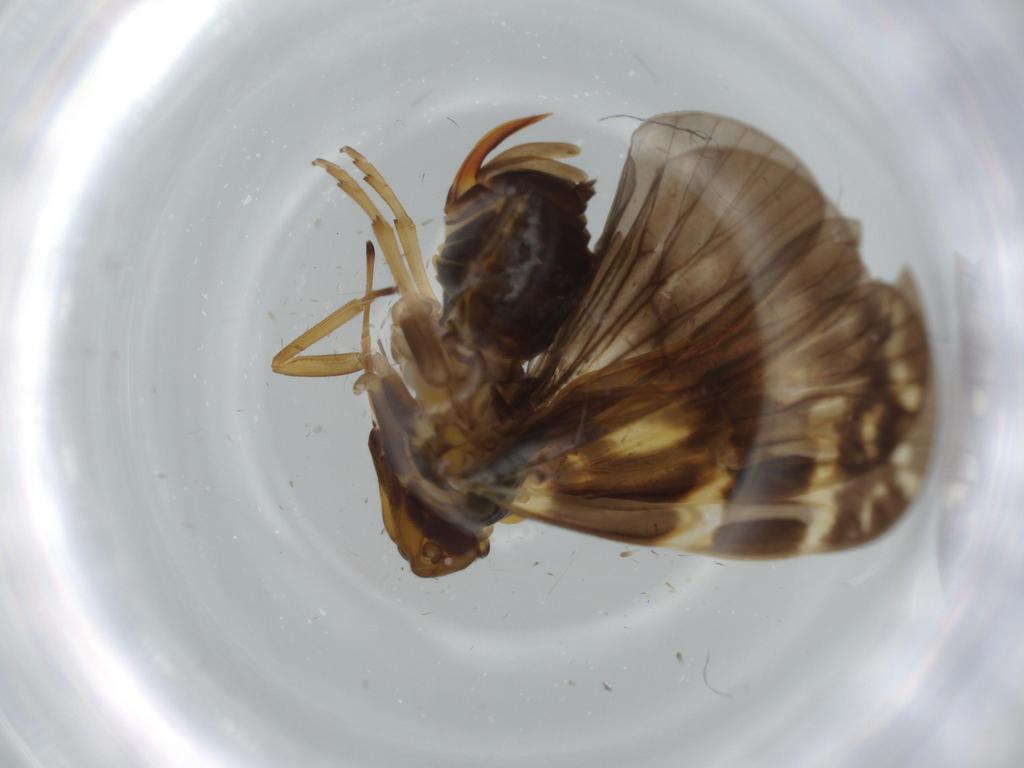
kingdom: Animalia
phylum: Arthropoda
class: Insecta
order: Hemiptera
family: Cixiidae
